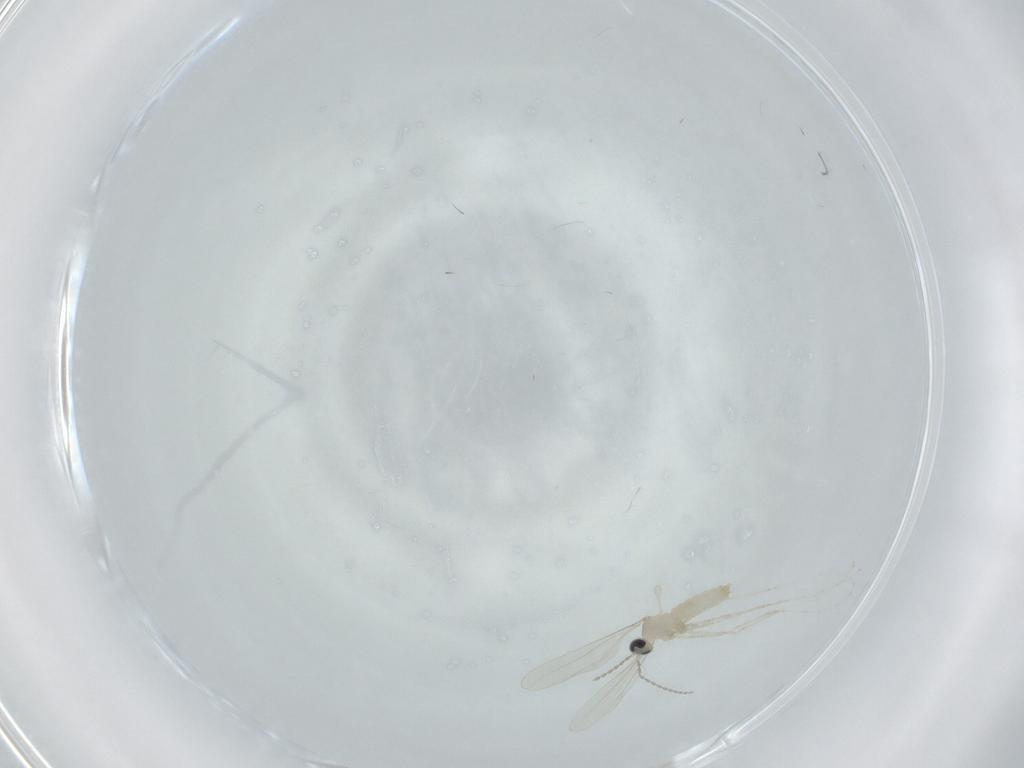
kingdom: Animalia
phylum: Arthropoda
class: Insecta
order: Diptera
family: Cecidomyiidae
